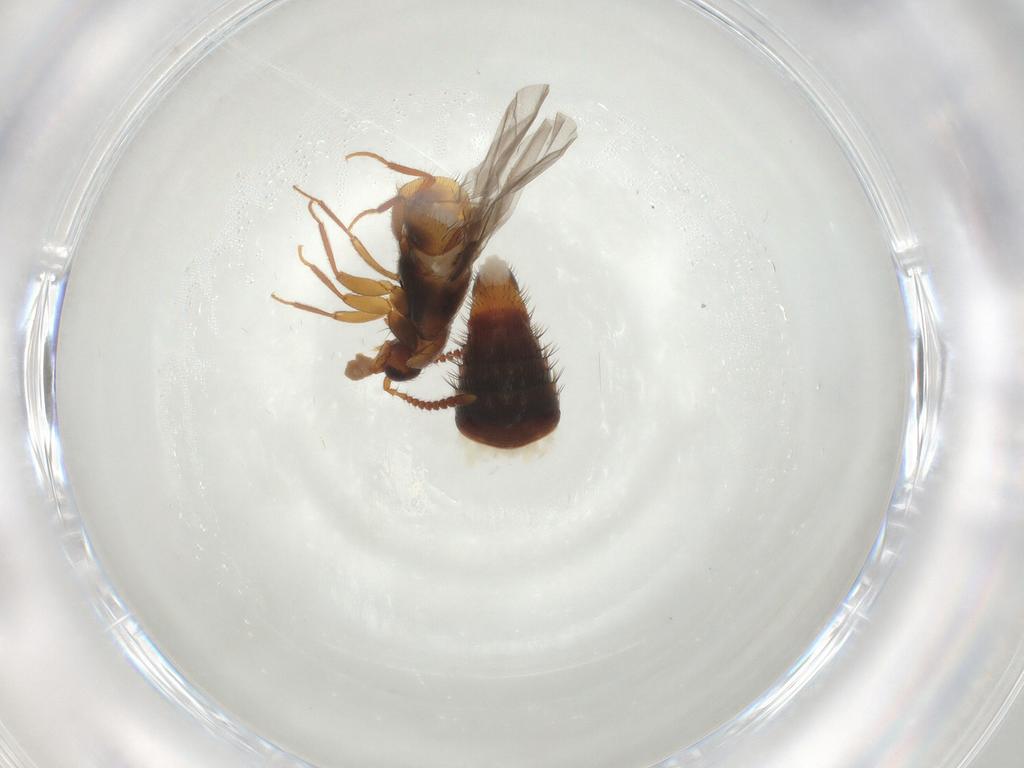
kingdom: Animalia
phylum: Arthropoda
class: Insecta
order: Diptera
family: Chironomidae
